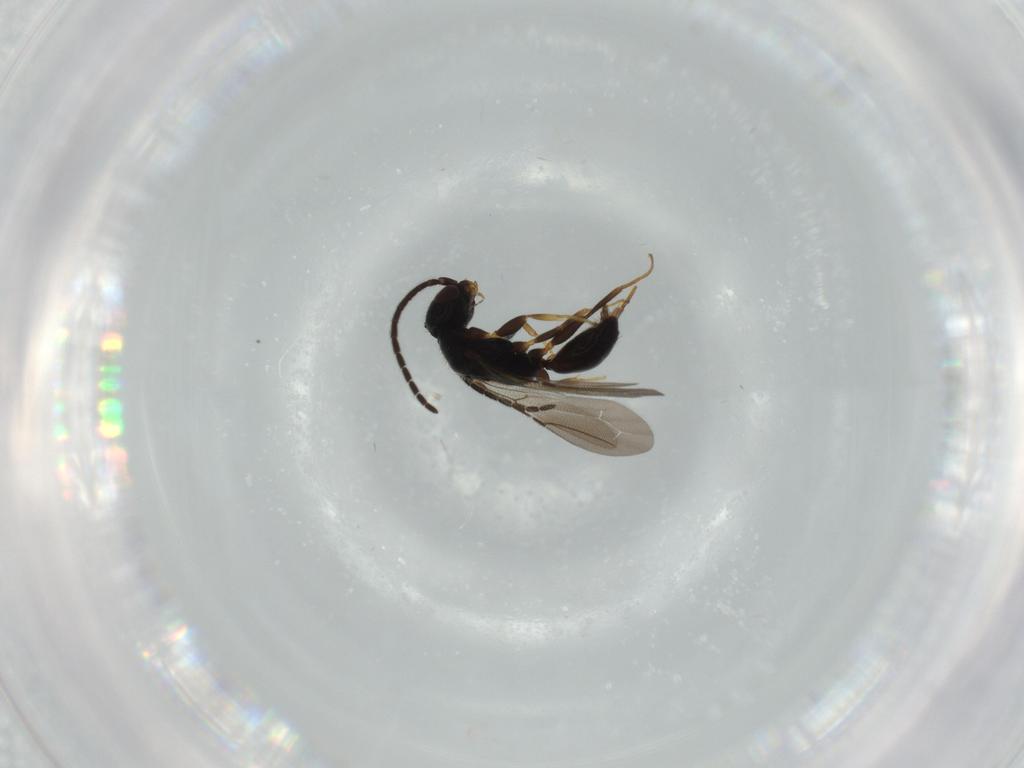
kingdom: Animalia
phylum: Arthropoda
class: Insecta
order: Hymenoptera
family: Bethylidae
